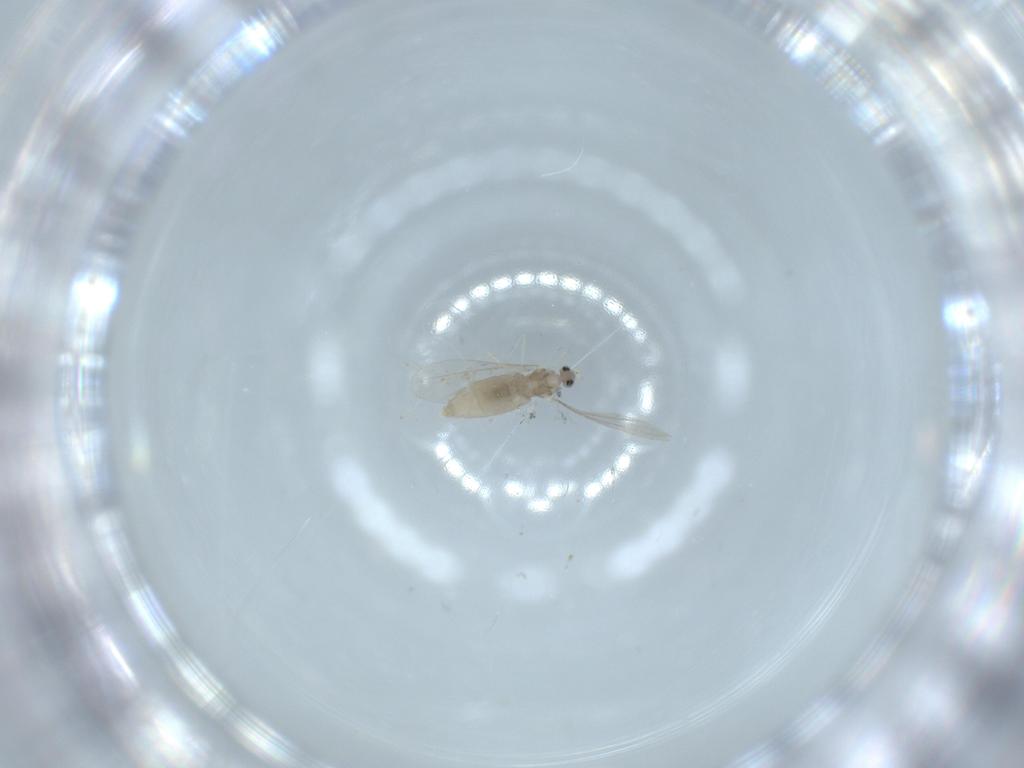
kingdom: Animalia
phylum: Arthropoda
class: Insecta
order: Diptera
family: Cecidomyiidae
